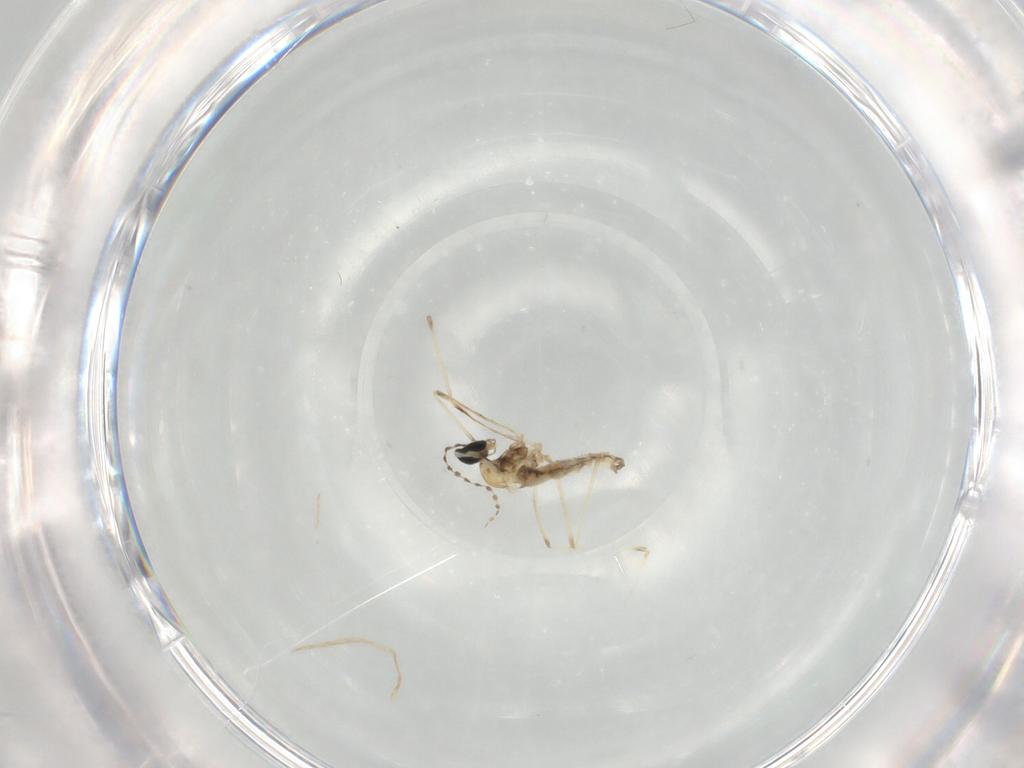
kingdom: Animalia
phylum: Arthropoda
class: Insecta
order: Diptera
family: Cecidomyiidae
